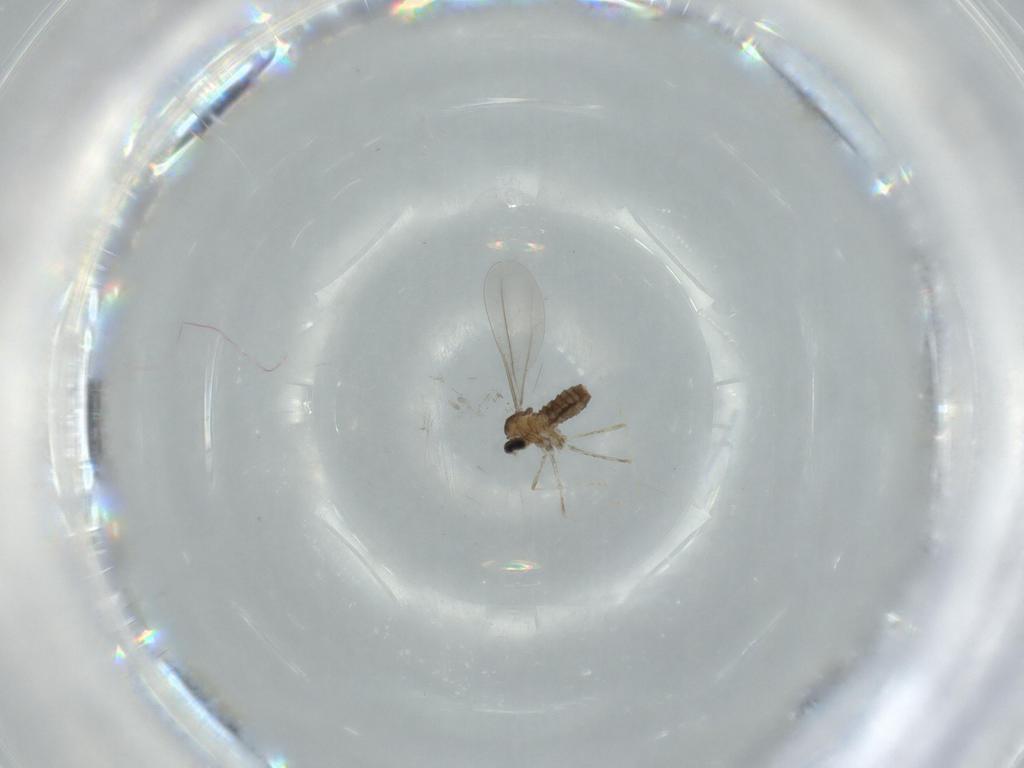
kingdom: Animalia
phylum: Arthropoda
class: Insecta
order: Diptera
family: Cecidomyiidae
